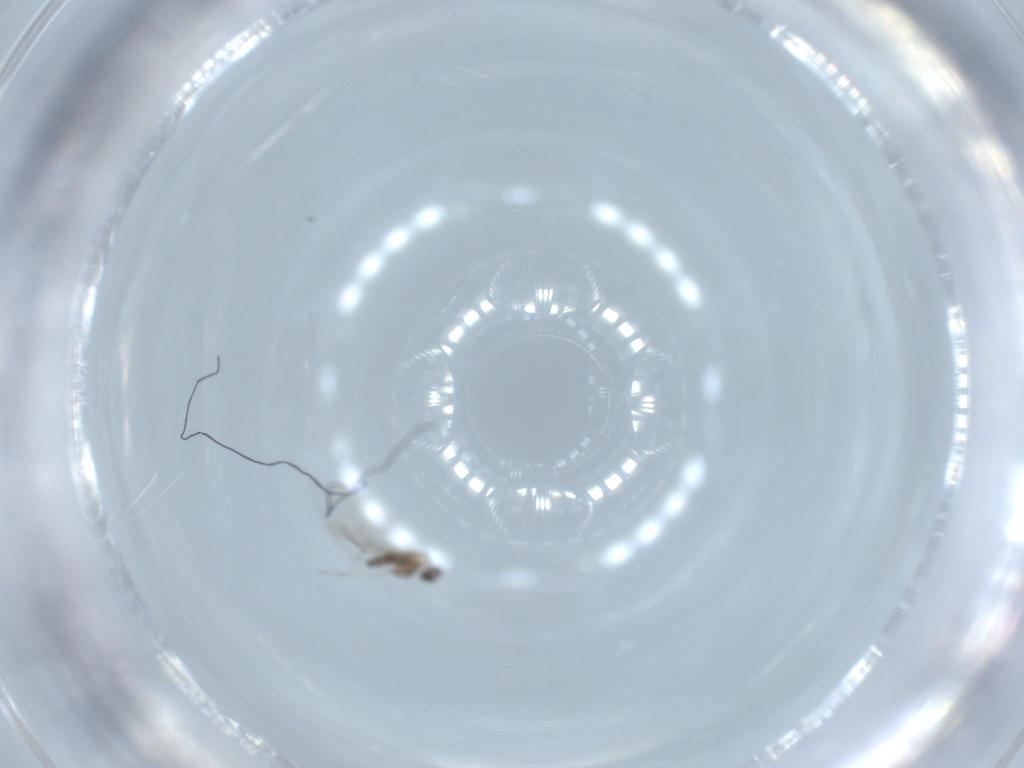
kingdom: Animalia
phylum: Arthropoda
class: Insecta
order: Diptera
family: Cecidomyiidae
